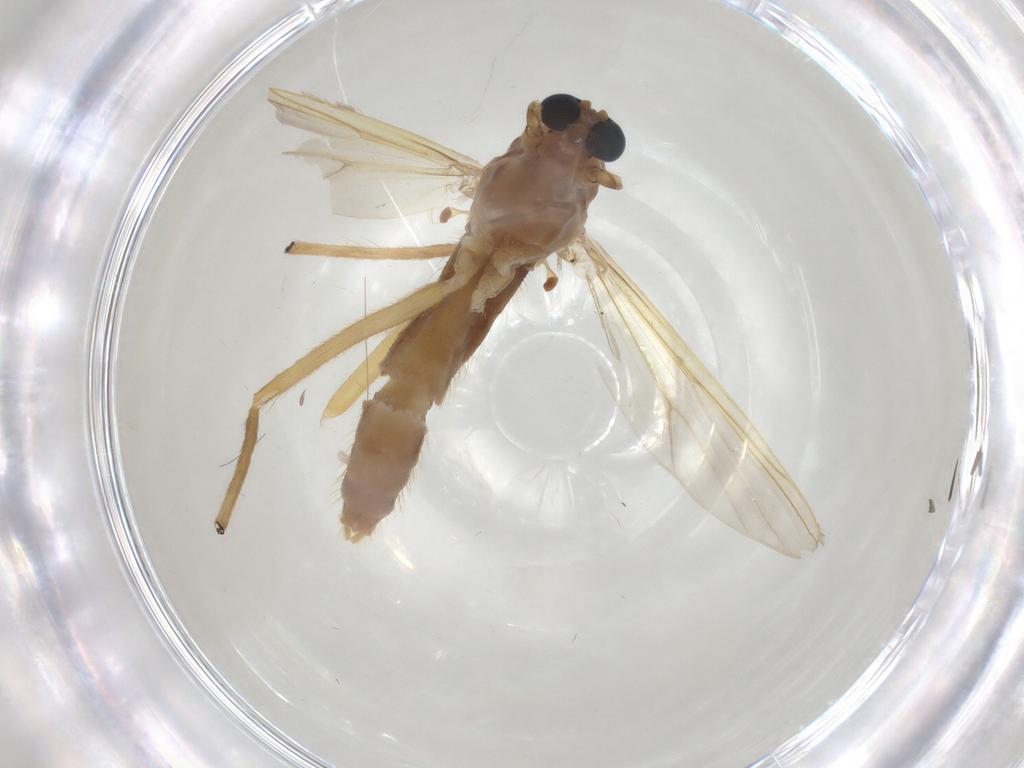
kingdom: Animalia
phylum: Arthropoda
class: Insecta
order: Diptera
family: Chironomidae
